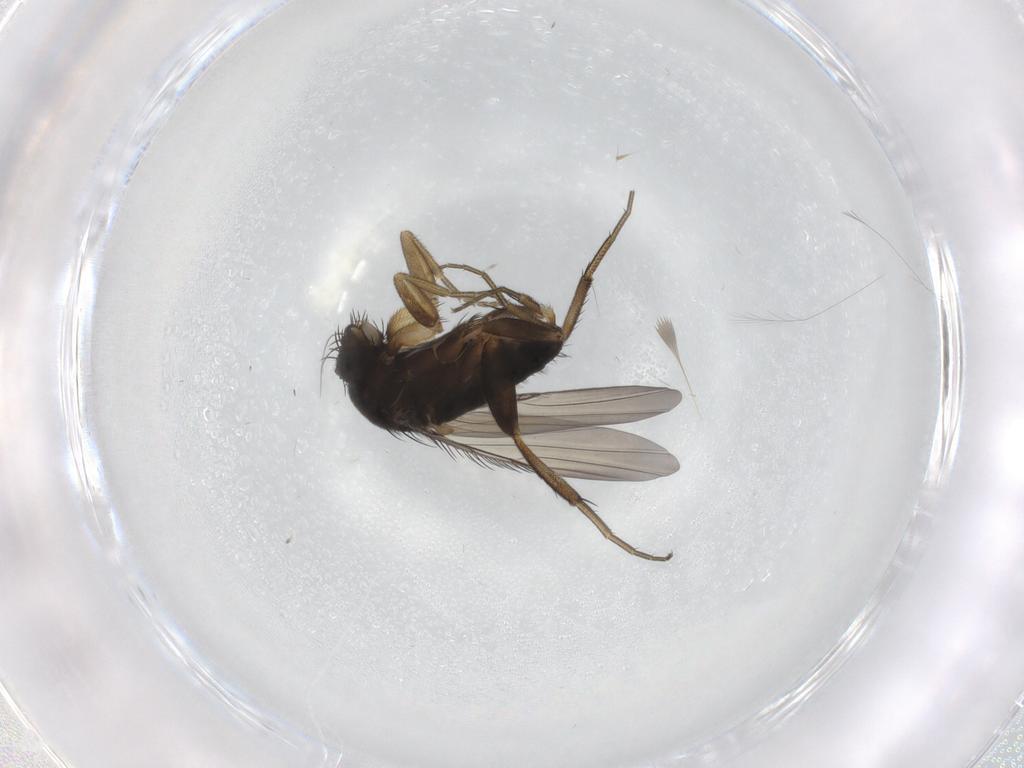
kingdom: Animalia
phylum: Arthropoda
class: Insecta
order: Diptera
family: Phoridae
